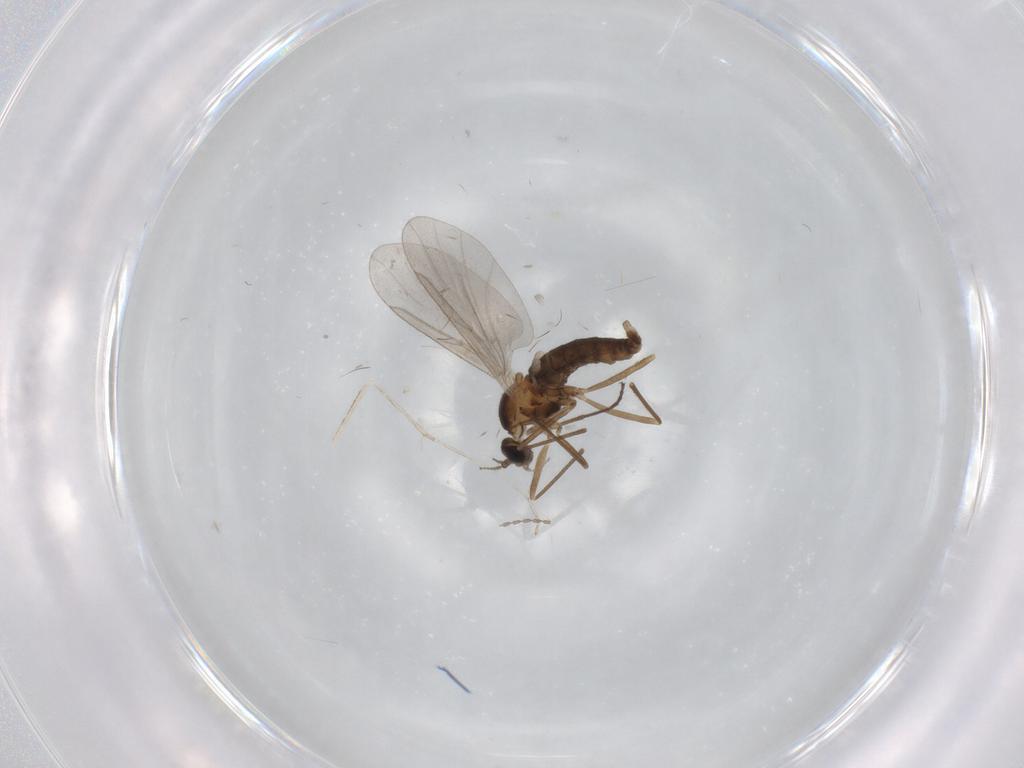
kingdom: Animalia
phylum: Arthropoda
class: Insecta
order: Diptera
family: Cecidomyiidae
